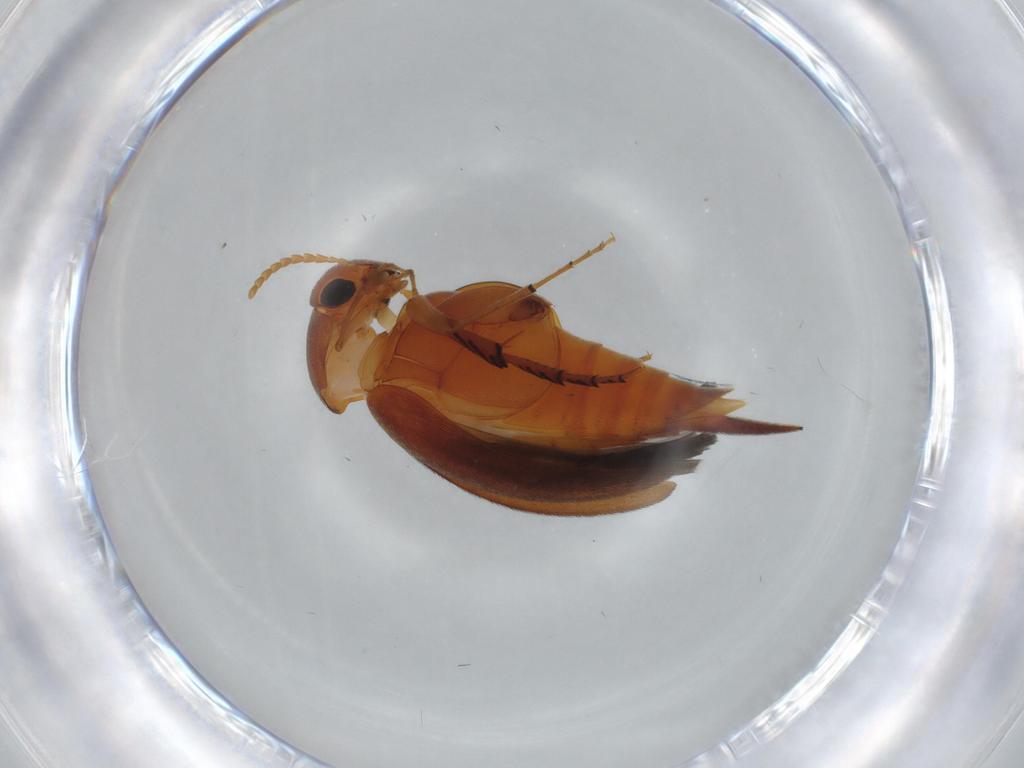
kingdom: Animalia
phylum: Arthropoda
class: Insecta
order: Coleoptera
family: Mordellidae
